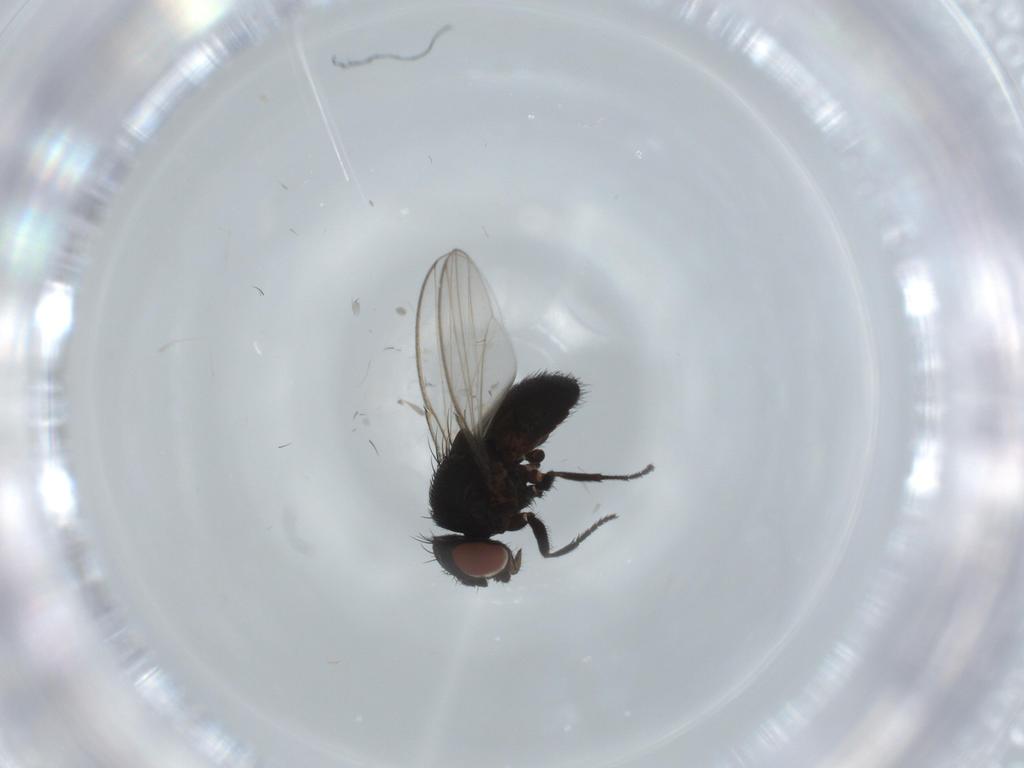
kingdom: Animalia
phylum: Arthropoda
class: Insecta
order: Diptera
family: Milichiidae
